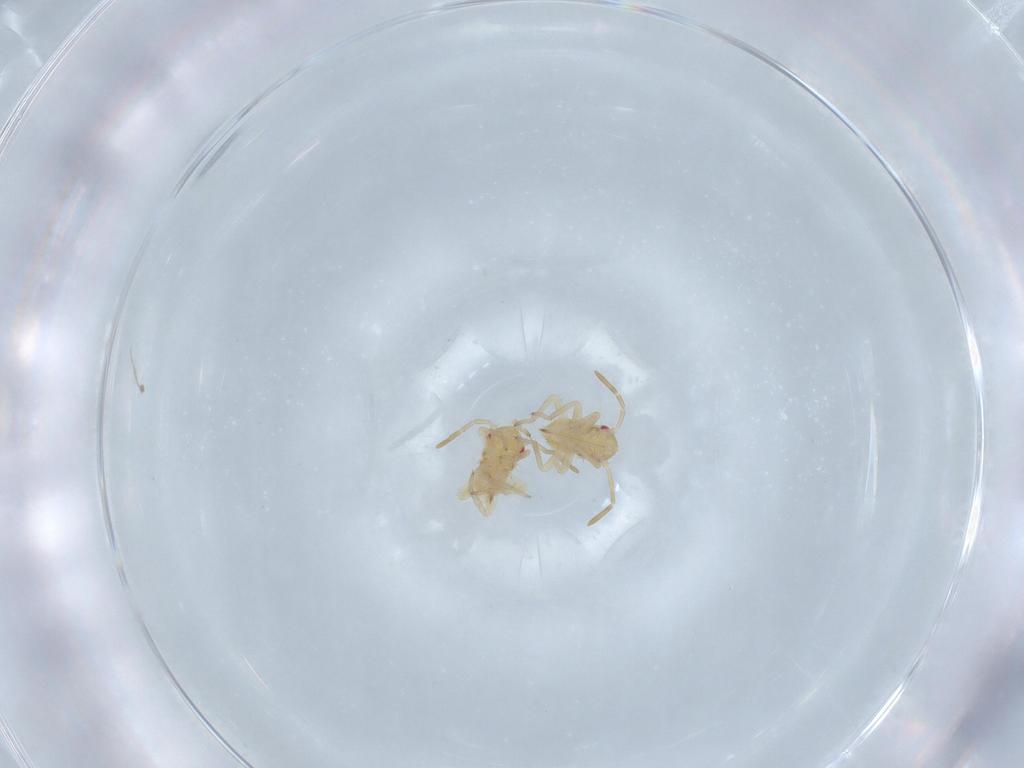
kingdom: Animalia
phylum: Arthropoda
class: Insecta
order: Hemiptera
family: Miridae
